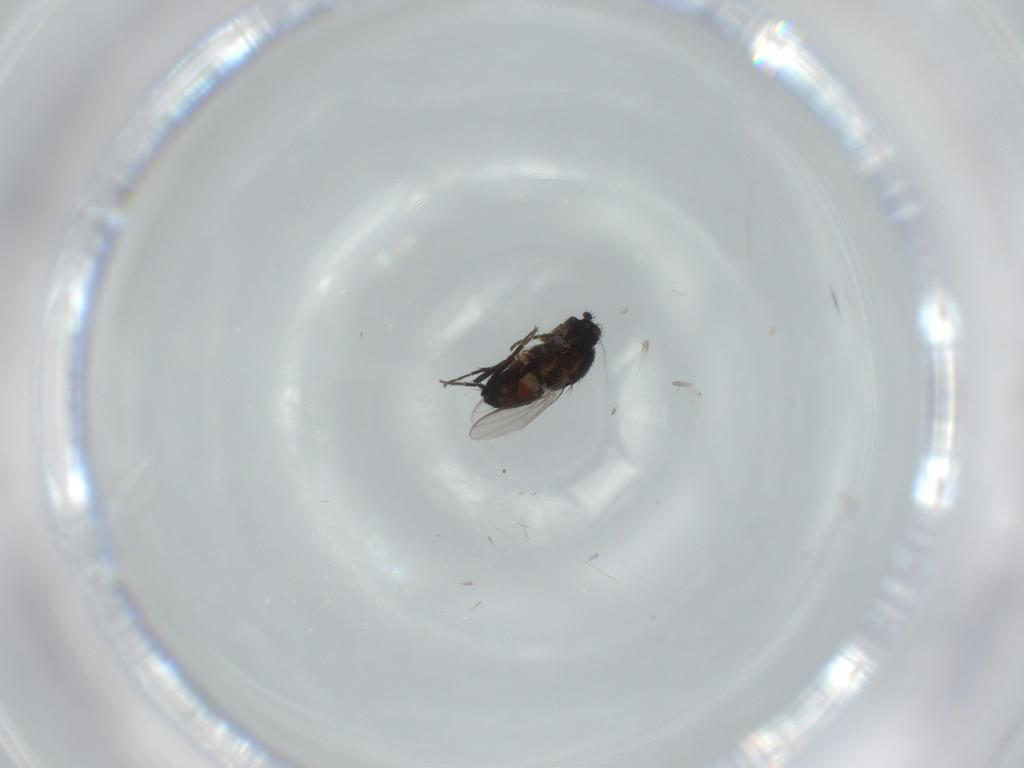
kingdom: Animalia
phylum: Arthropoda
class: Insecta
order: Diptera
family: Sphaeroceridae
